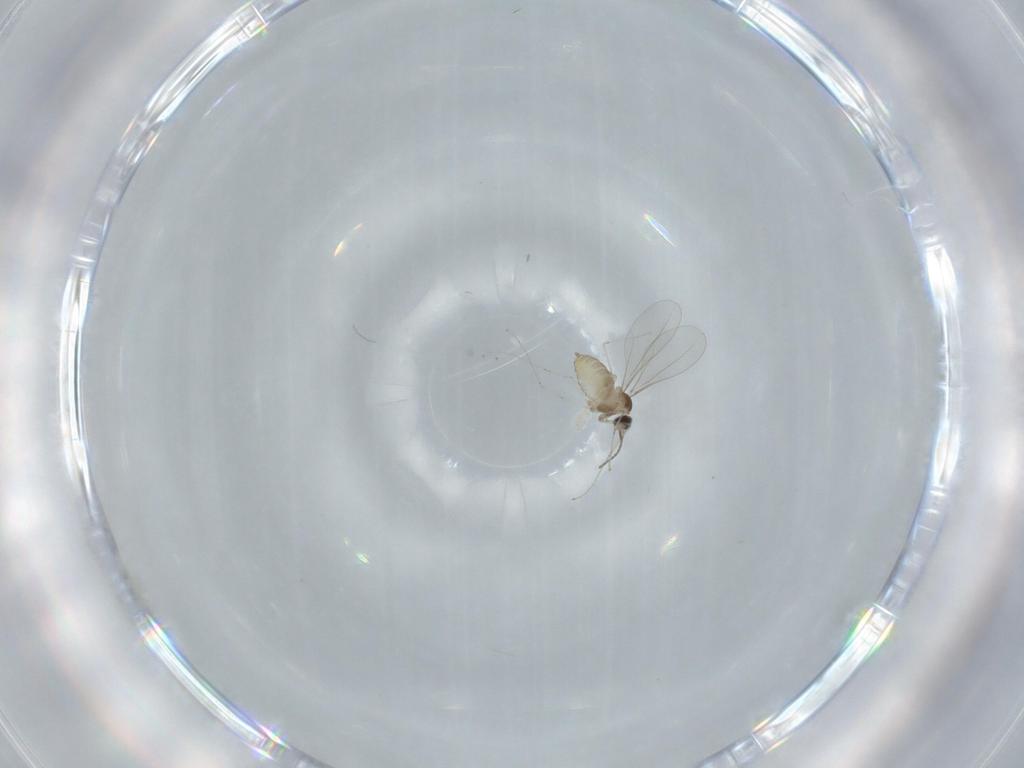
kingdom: Animalia
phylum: Arthropoda
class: Insecta
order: Diptera
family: Cecidomyiidae
